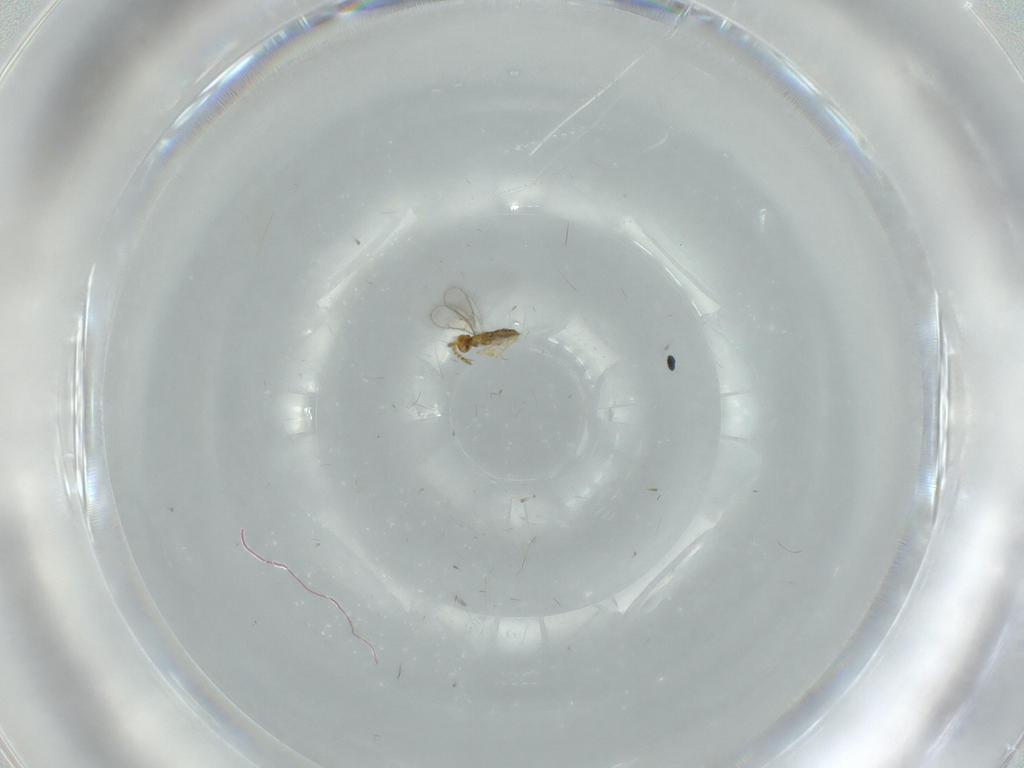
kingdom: Animalia
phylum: Arthropoda
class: Insecta
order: Hymenoptera
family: Aphelinidae
